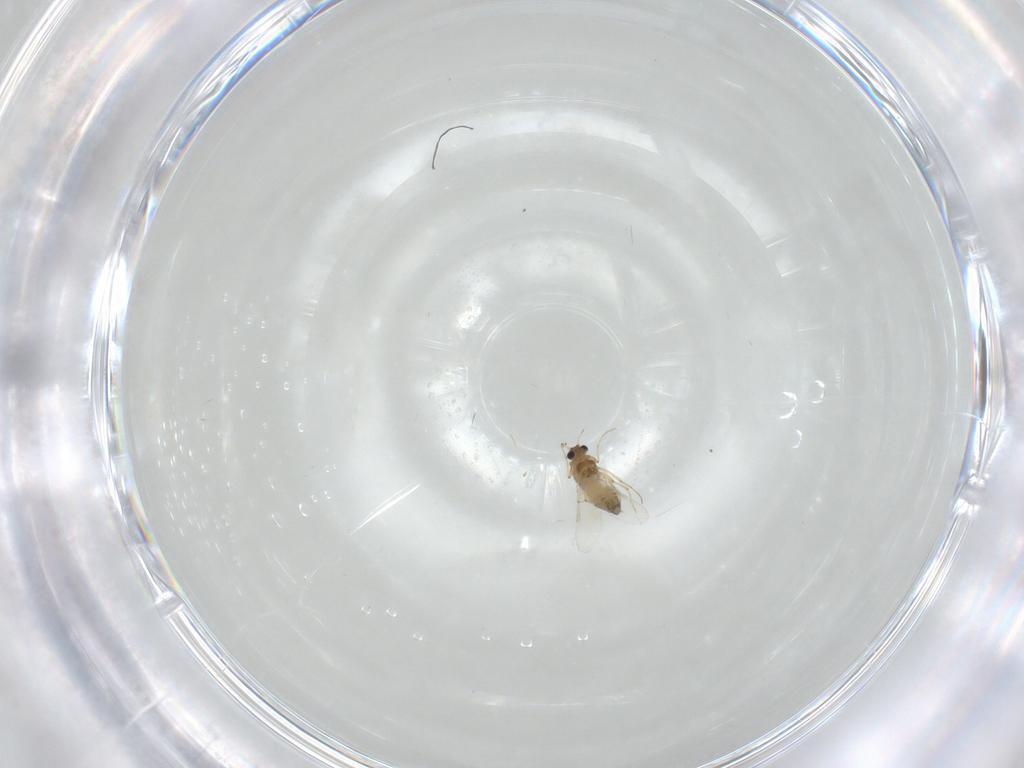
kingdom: Animalia
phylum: Arthropoda
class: Insecta
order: Diptera
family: Chironomidae
